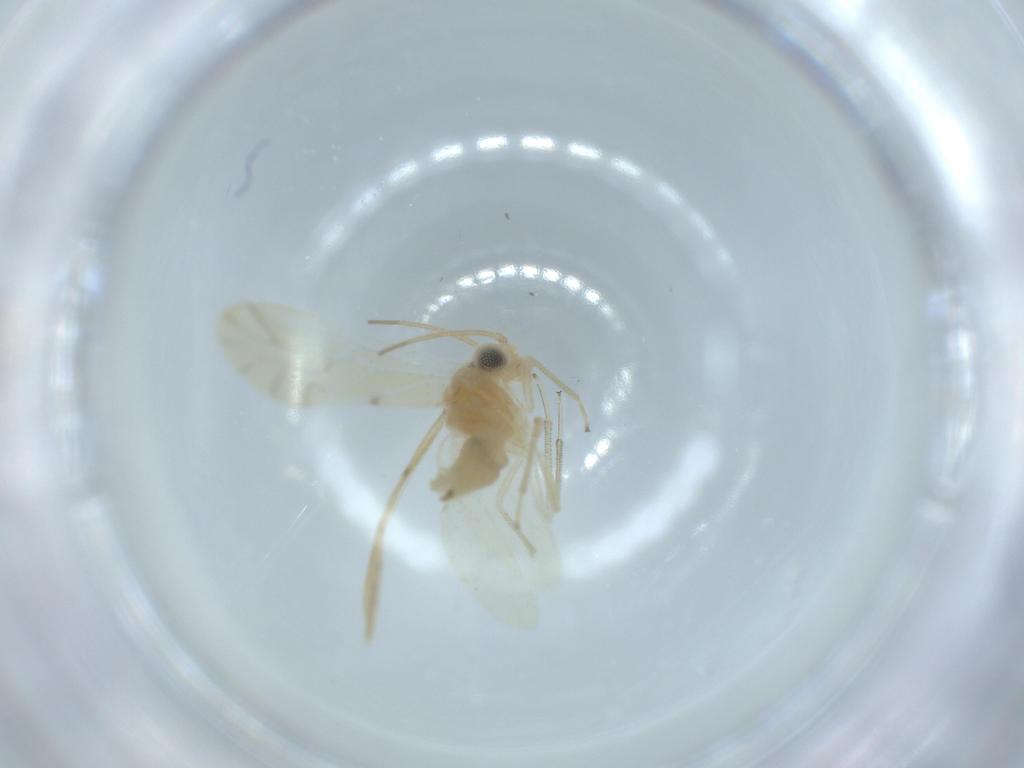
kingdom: Animalia
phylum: Arthropoda
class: Insecta
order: Psocodea
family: Caeciliusidae
